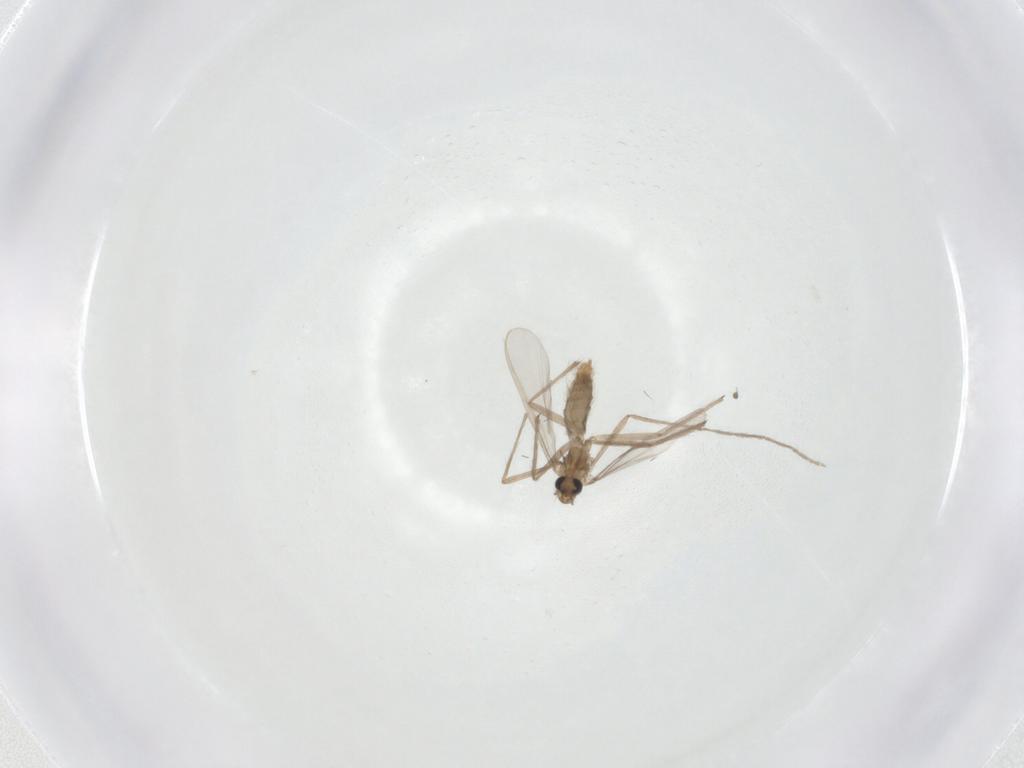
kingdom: Animalia
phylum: Arthropoda
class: Insecta
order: Diptera
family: Chironomidae
